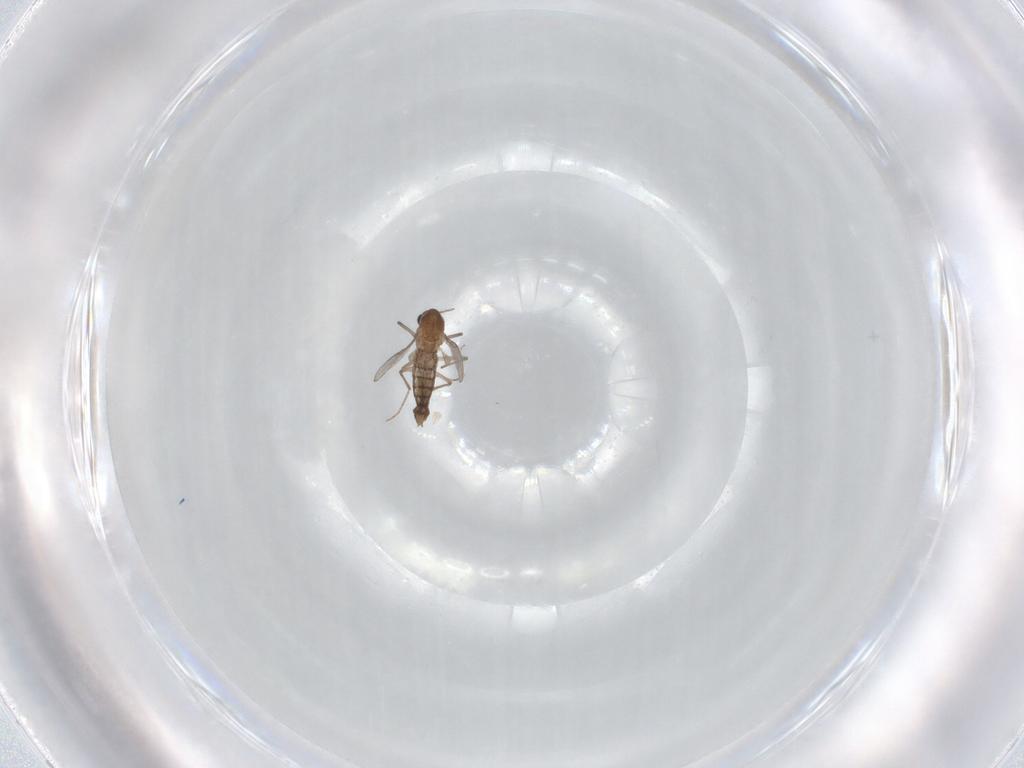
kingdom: Animalia
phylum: Arthropoda
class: Insecta
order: Diptera
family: Chironomidae
